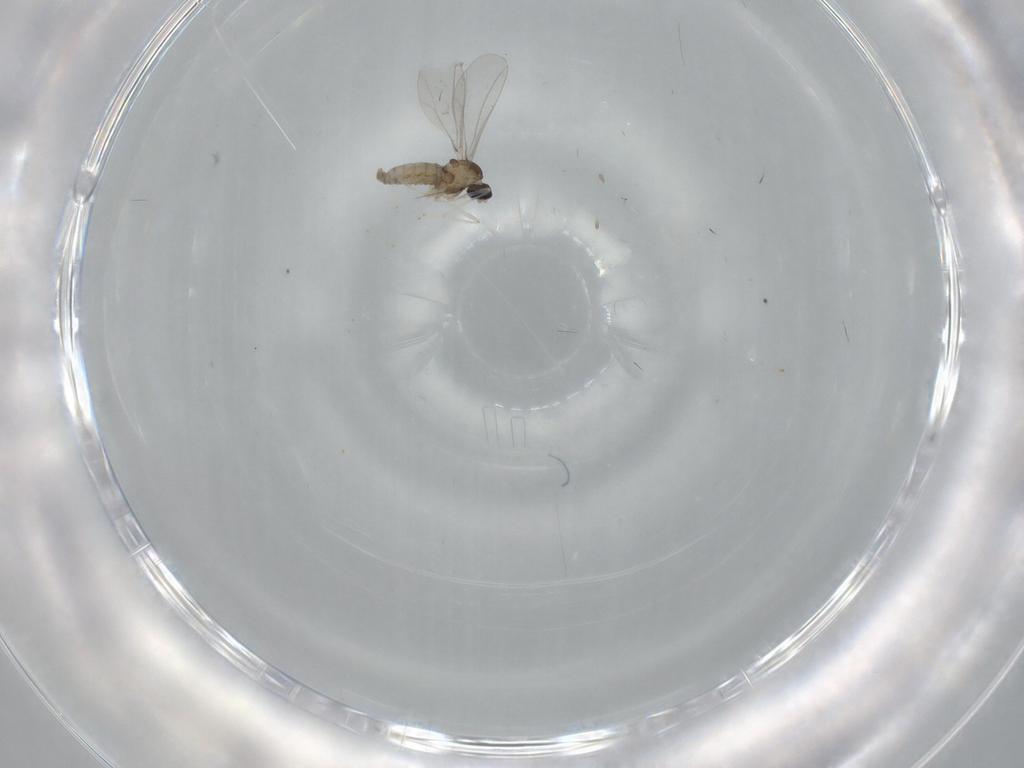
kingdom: Animalia
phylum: Arthropoda
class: Insecta
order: Diptera
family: Cecidomyiidae
